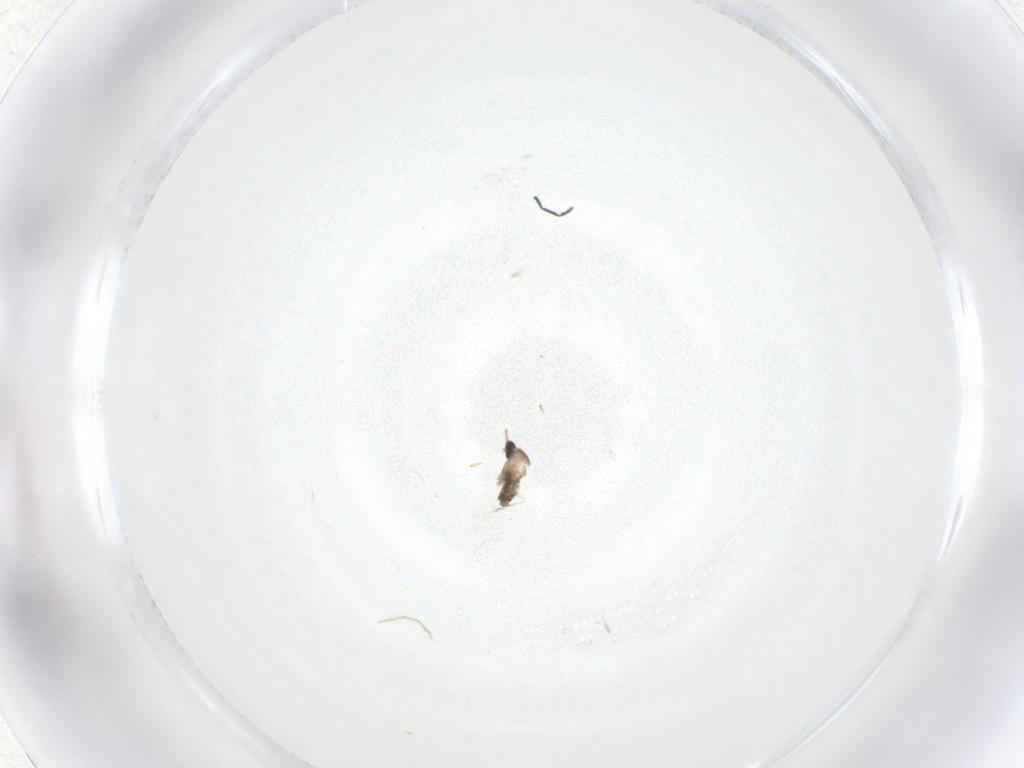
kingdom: Animalia
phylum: Arthropoda
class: Insecta
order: Diptera
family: Cecidomyiidae
